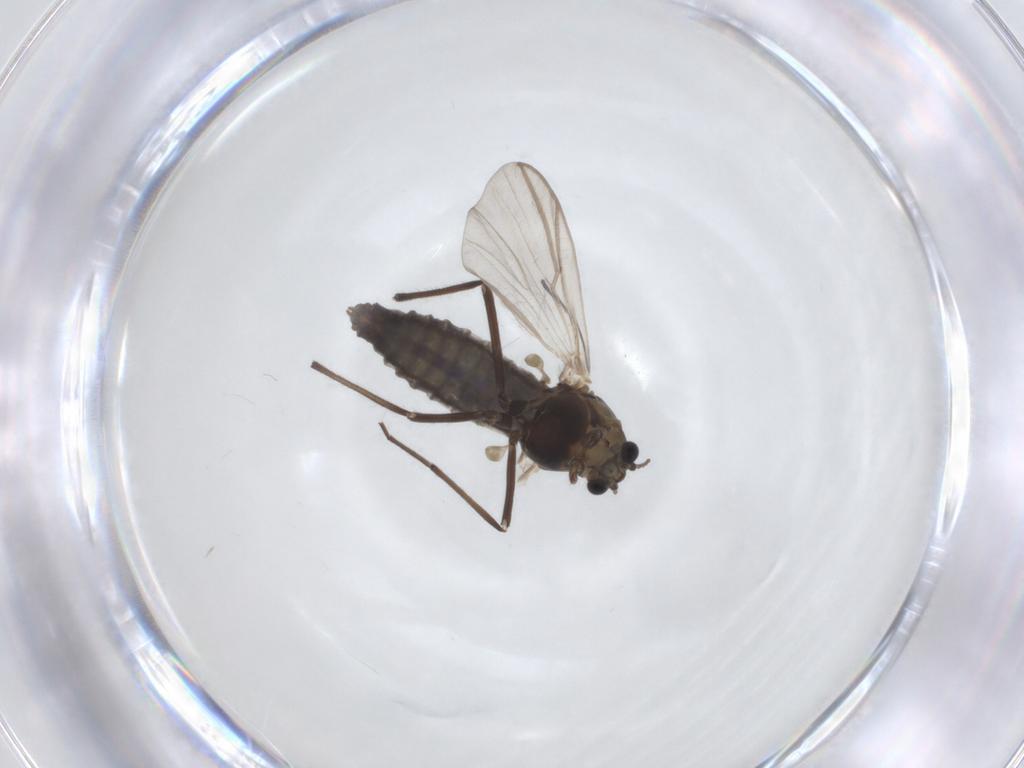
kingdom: Animalia
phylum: Arthropoda
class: Insecta
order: Diptera
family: Chironomidae
